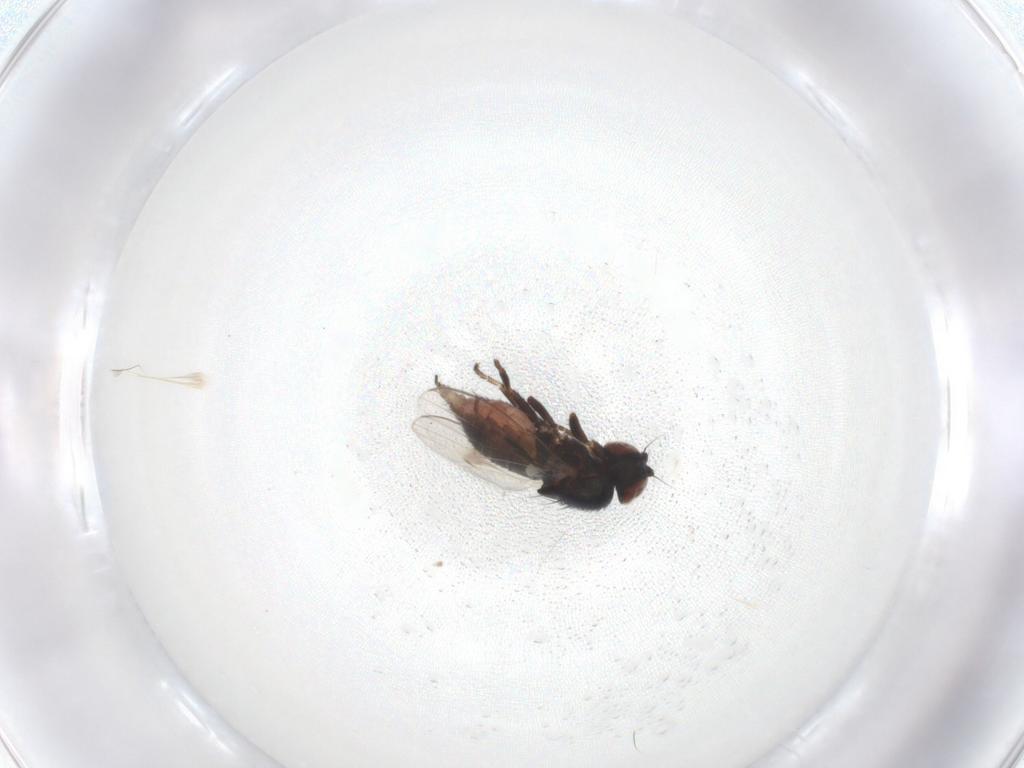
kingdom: Animalia
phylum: Arthropoda
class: Insecta
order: Diptera
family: Milichiidae
